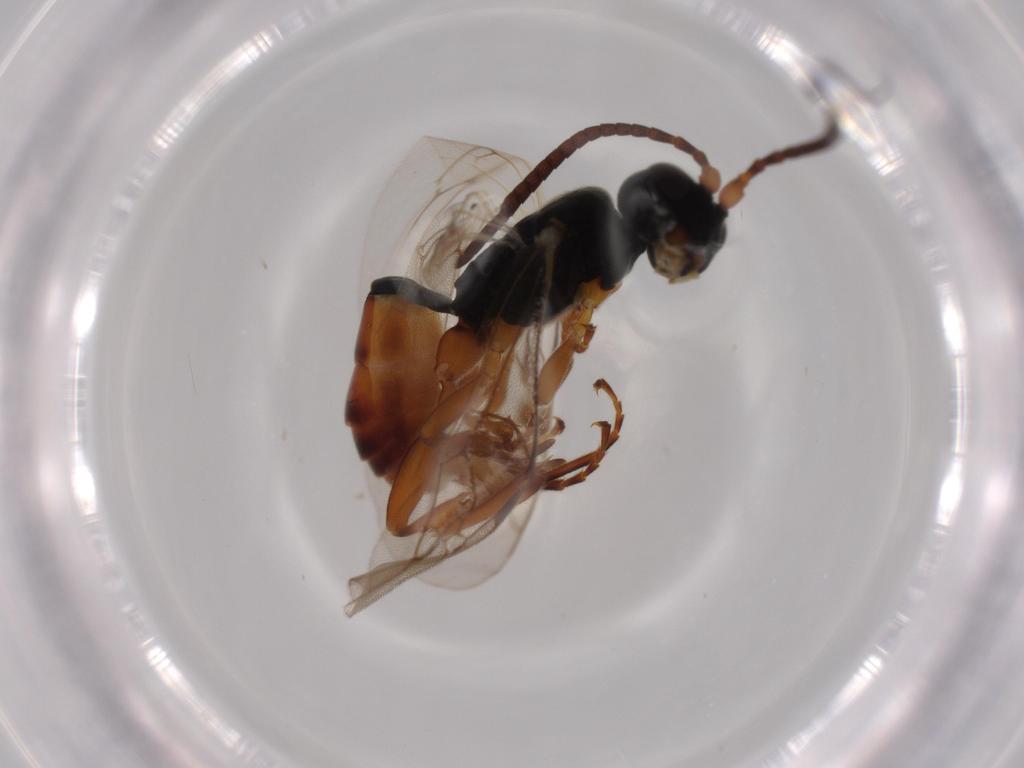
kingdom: Animalia
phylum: Arthropoda
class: Insecta
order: Hymenoptera
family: Ichneumonidae
